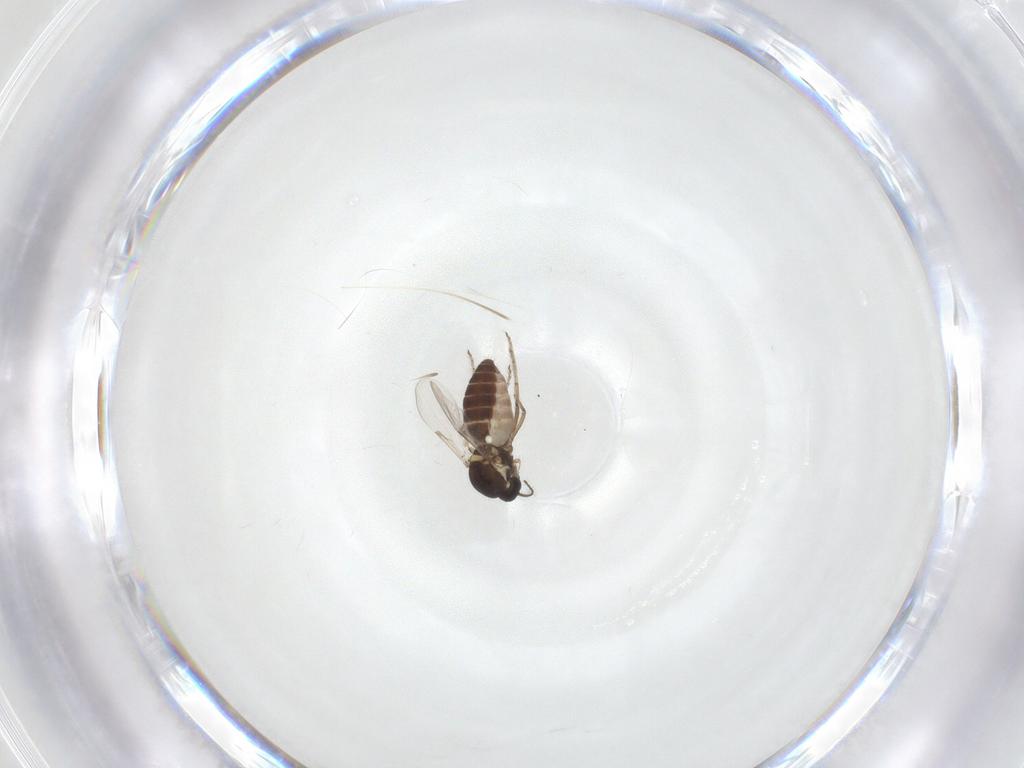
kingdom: Animalia
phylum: Arthropoda
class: Insecta
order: Diptera
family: Ceratopogonidae
